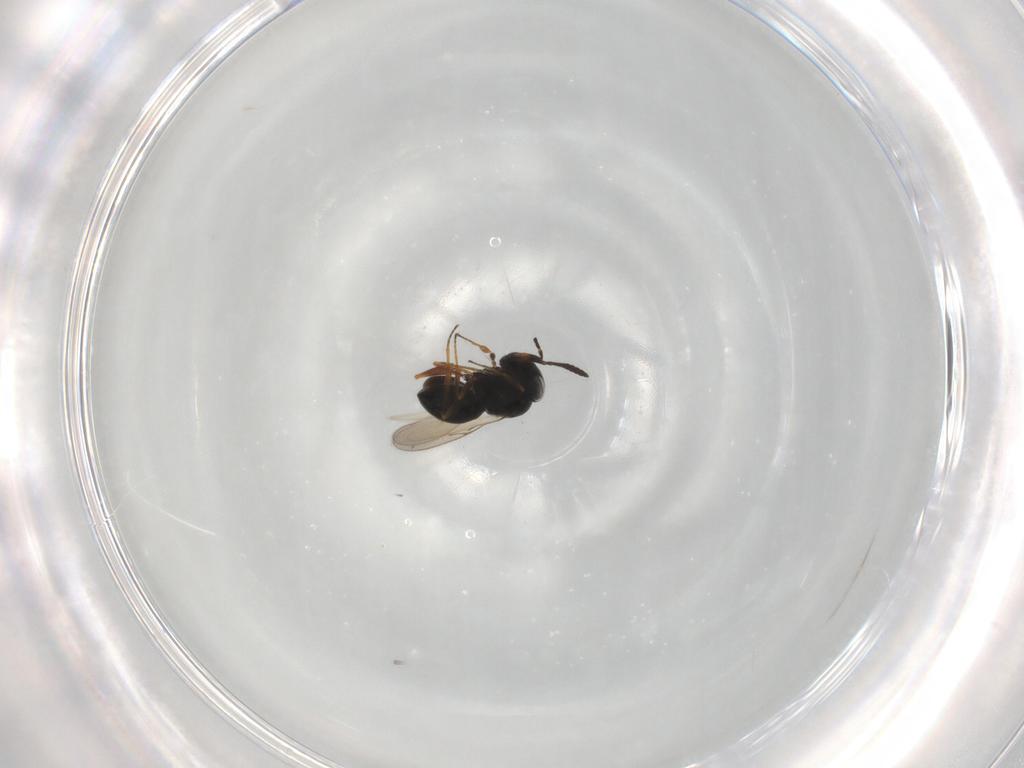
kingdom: Animalia
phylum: Arthropoda
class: Insecta
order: Hymenoptera
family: Scelionidae
